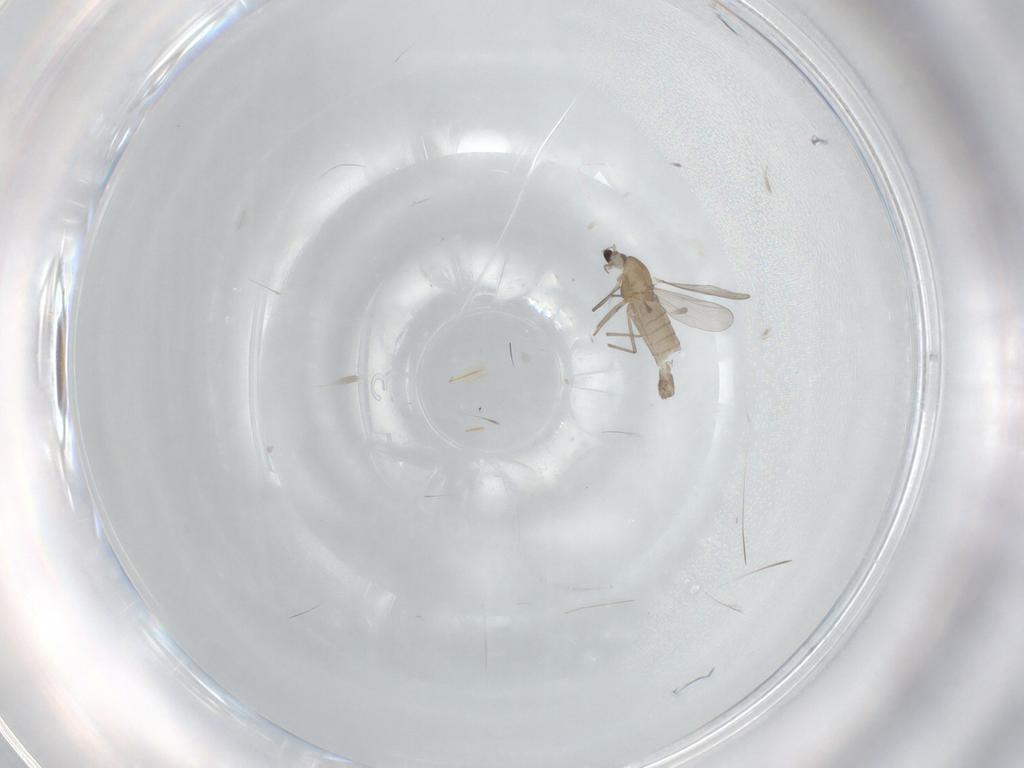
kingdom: Animalia
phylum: Arthropoda
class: Insecta
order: Diptera
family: Chironomidae
